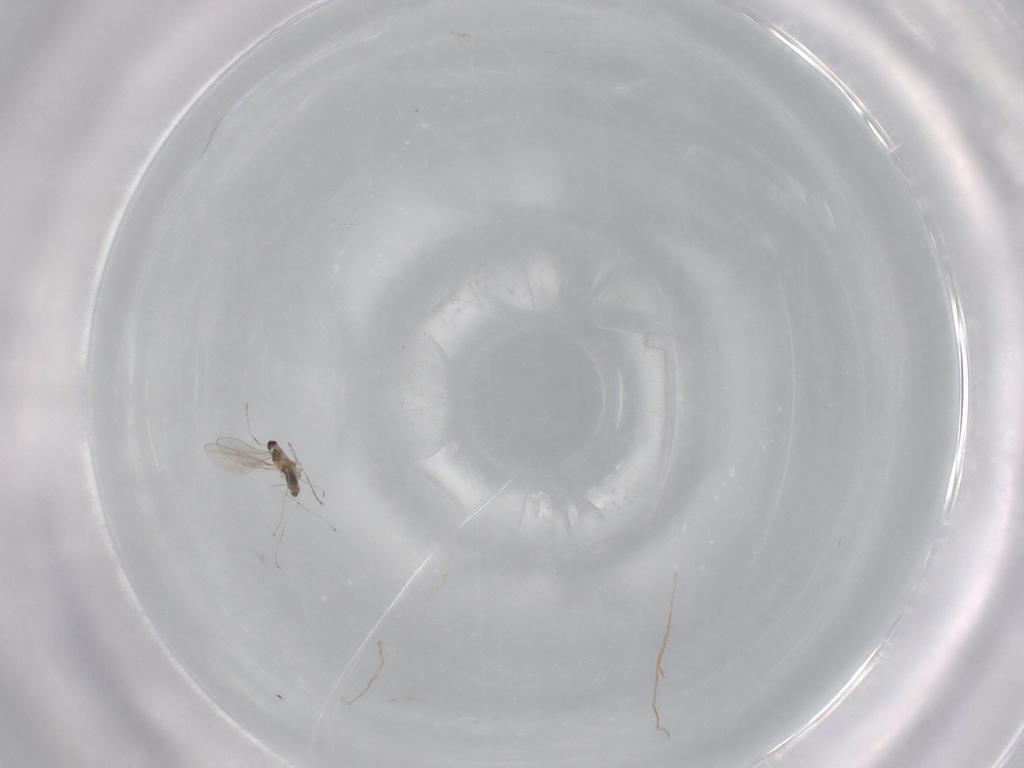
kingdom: Animalia
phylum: Arthropoda
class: Insecta
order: Diptera
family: Cecidomyiidae
